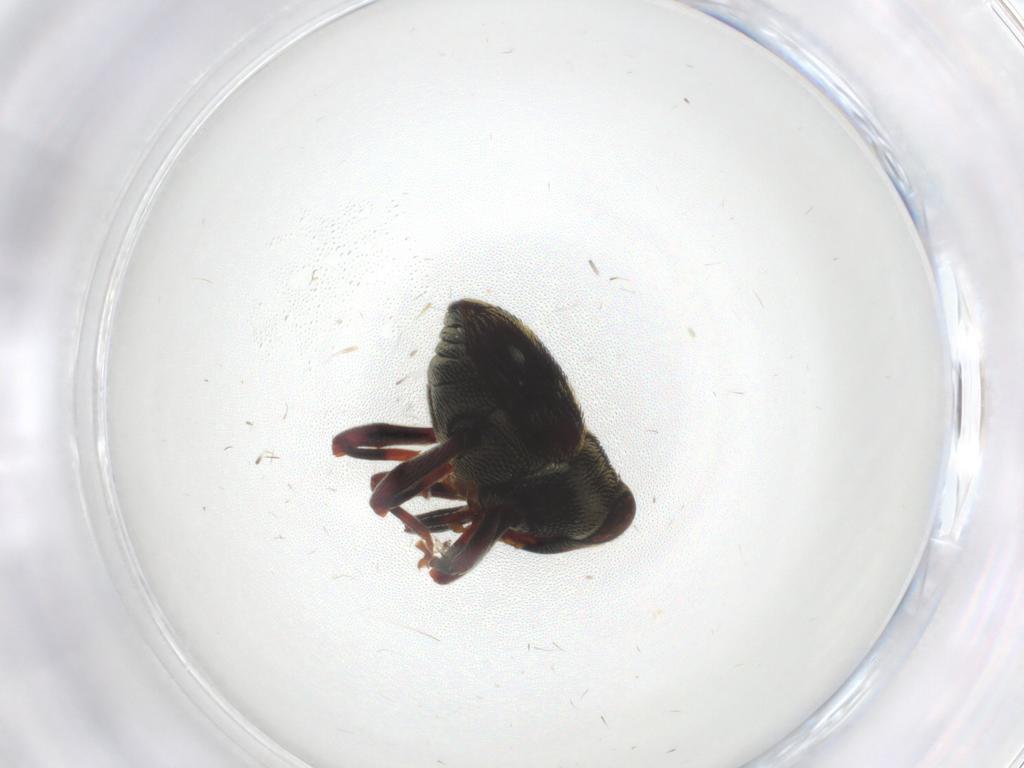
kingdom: Animalia
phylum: Arthropoda
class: Insecta
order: Coleoptera
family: Curculionidae
